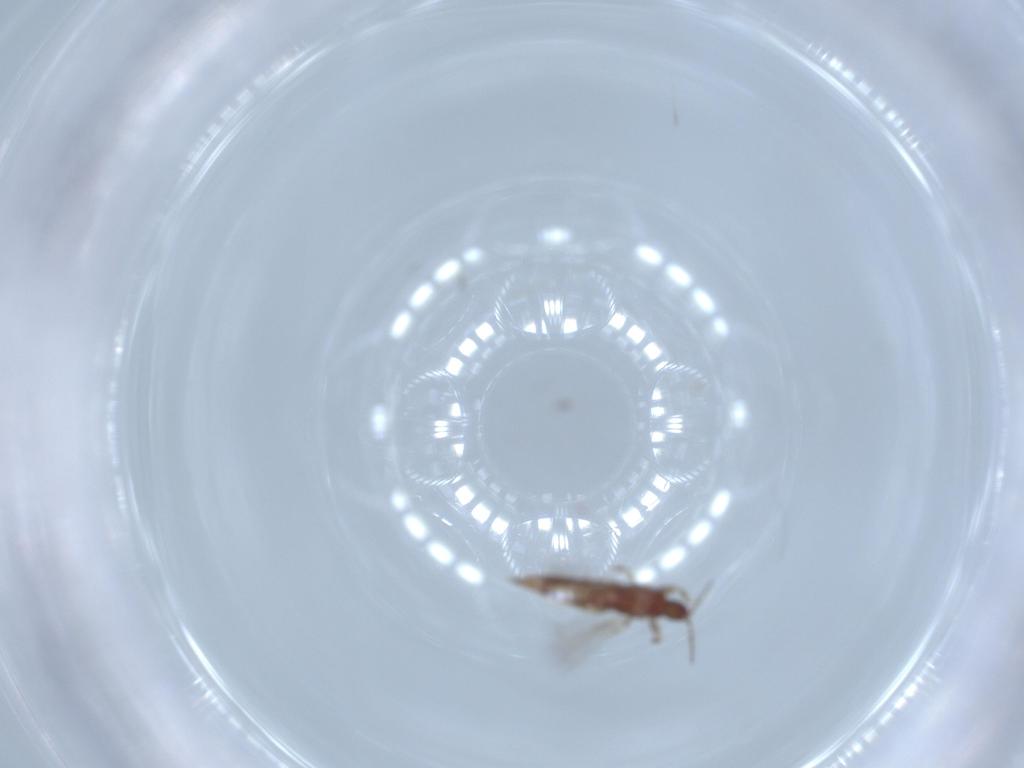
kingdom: Animalia
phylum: Arthropoda
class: Insecta
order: Thysanoptera
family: Phlaeothripidae
